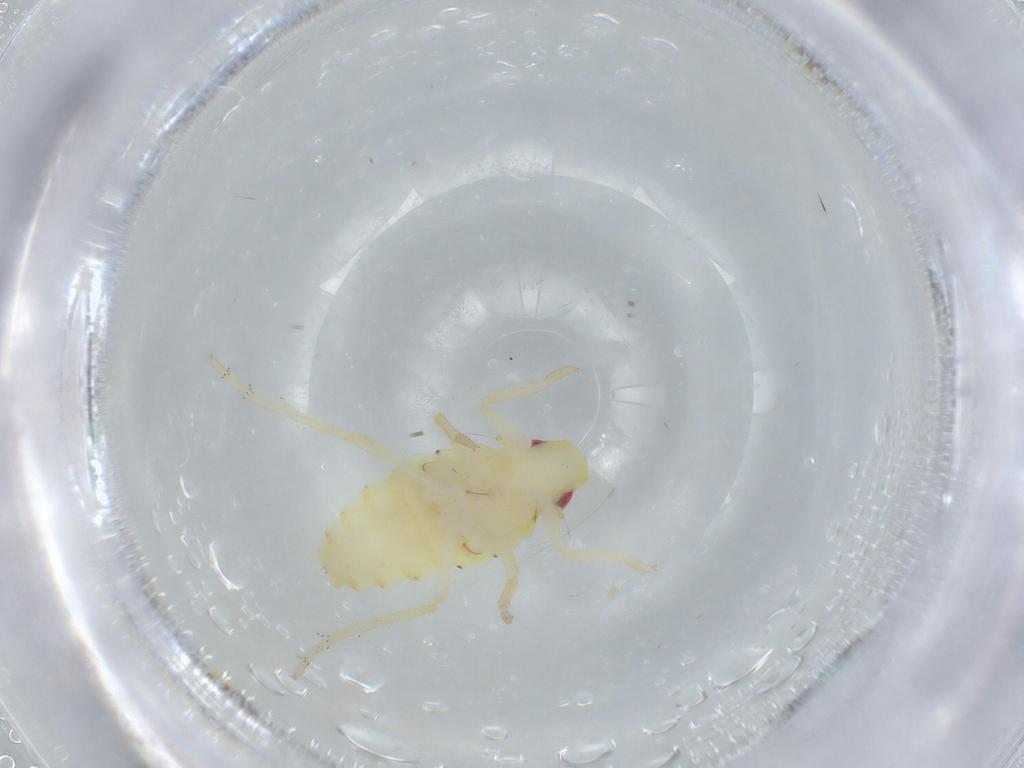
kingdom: Animalia
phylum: Arthropoda
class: Insecta
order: Hemiptera
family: Tropiduchidae
